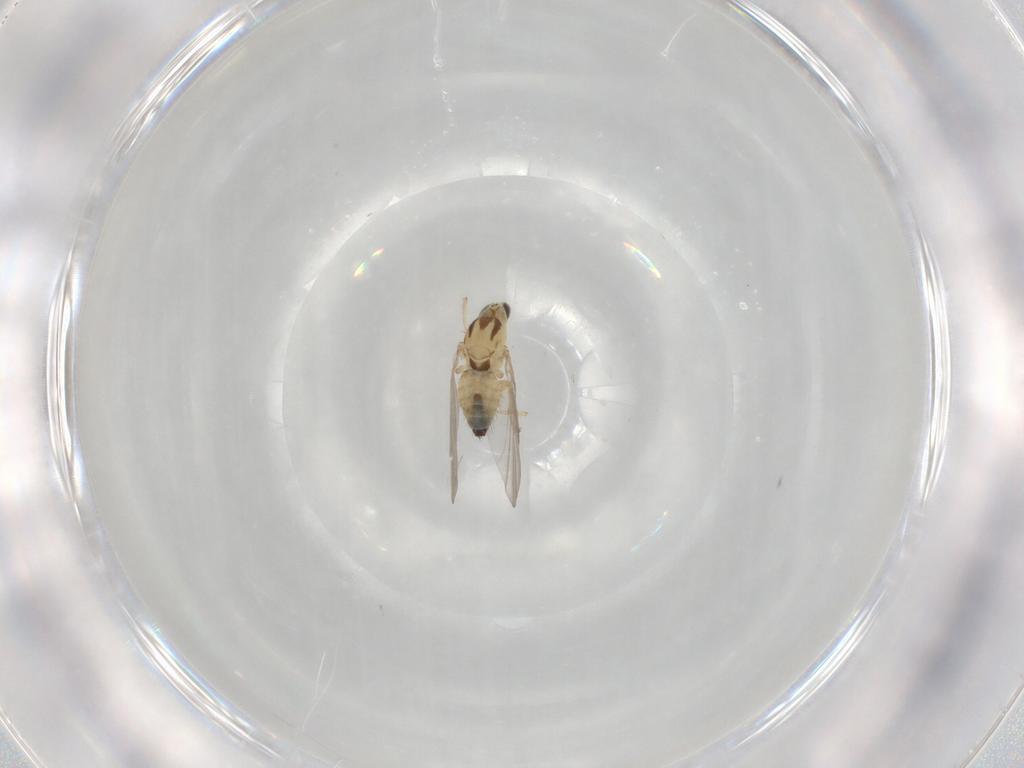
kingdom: Animalia
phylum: Arthropoda
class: Insecta
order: Diptera
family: Agromyzidae
